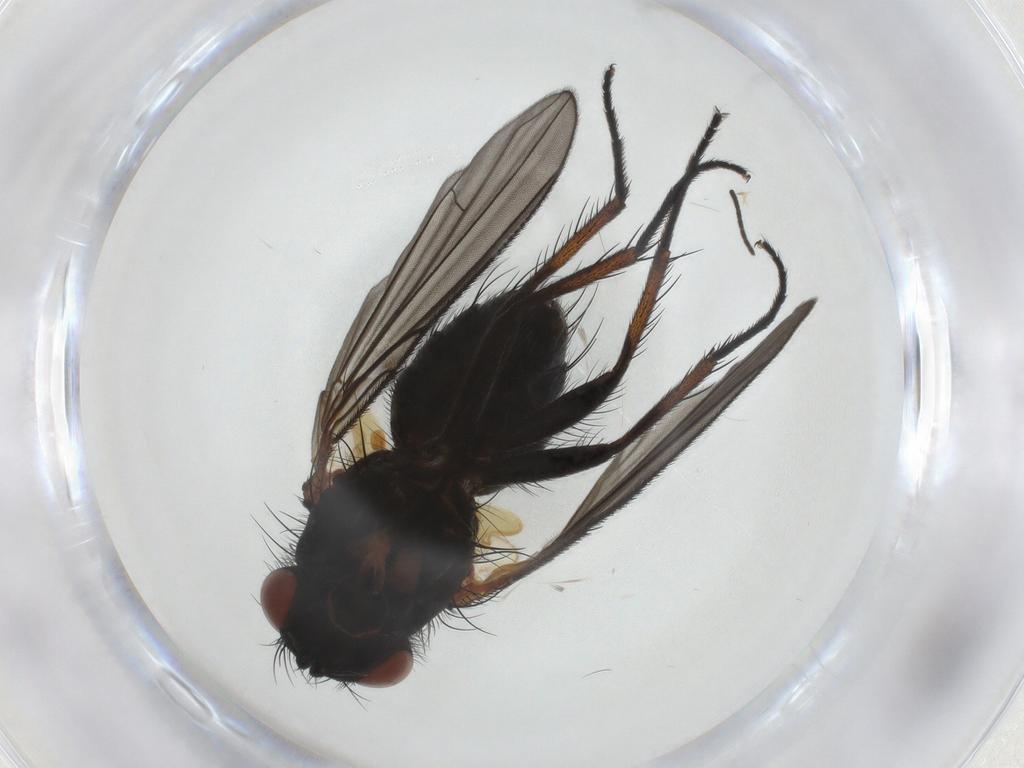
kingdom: Animalia
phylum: Arthropoda
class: Insecta
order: Diptera
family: Tachinidae
